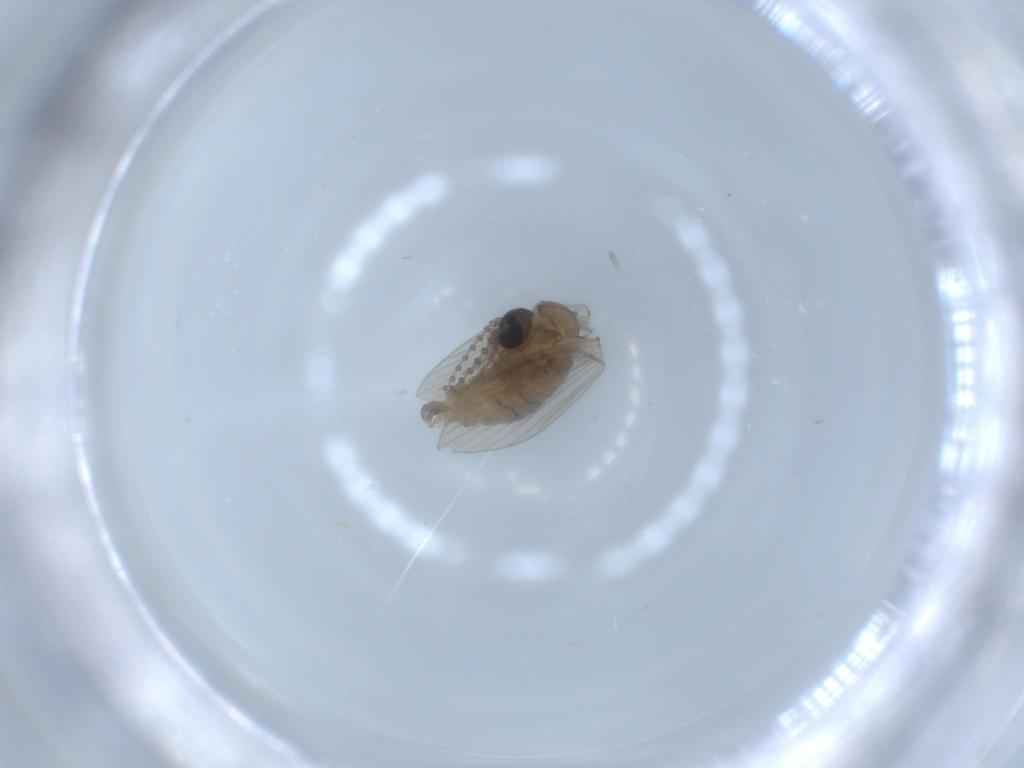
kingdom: Animalia
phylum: Arthropoda
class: Insecta
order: Diptera
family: Psychodidae
